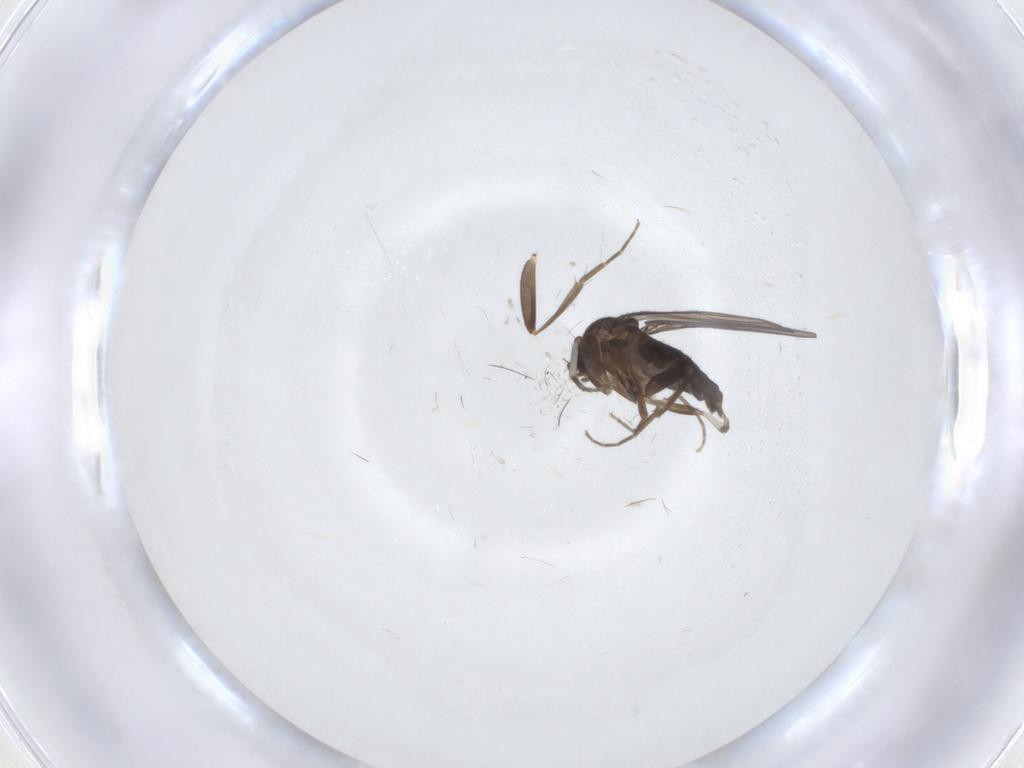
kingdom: Animalia
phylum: Arthropoda
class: Insecta
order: Diptera
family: Phoridae
